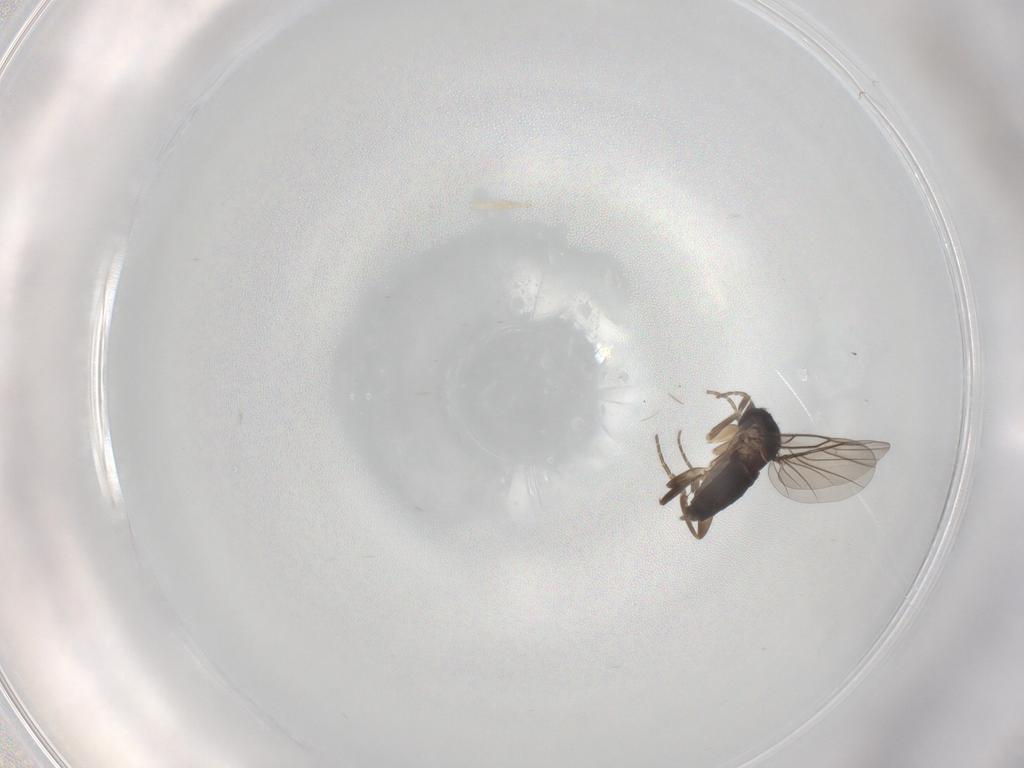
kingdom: Animalia
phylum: Arthropoda
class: Insecta
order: Diptera
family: Phoridae
